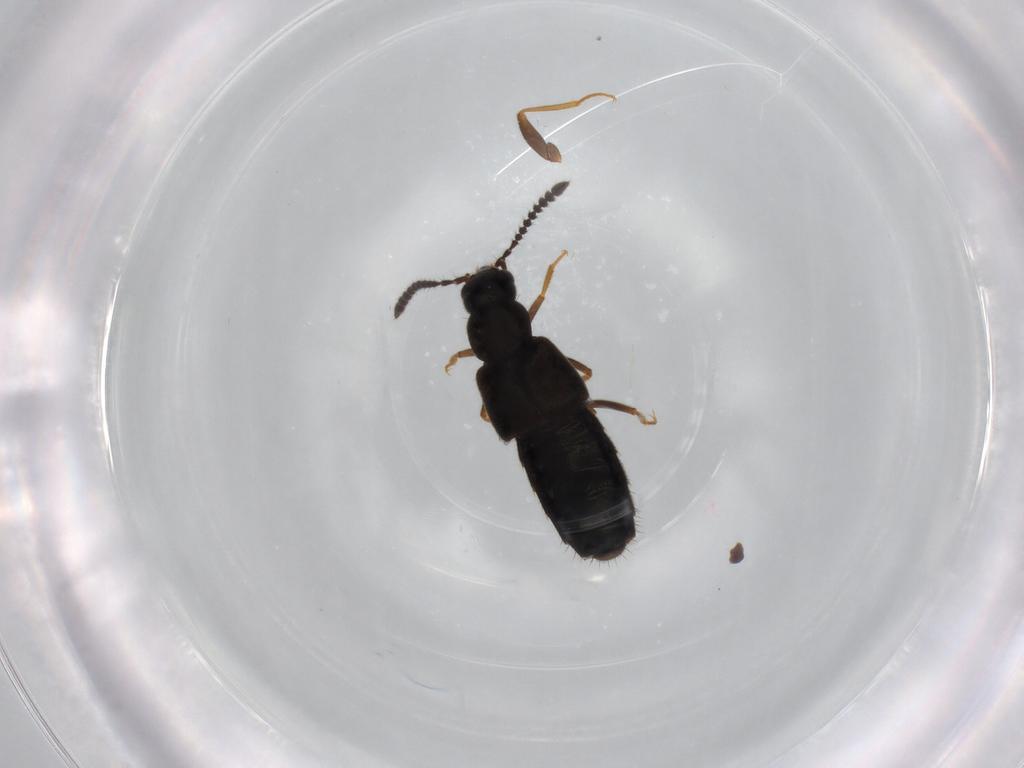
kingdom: Animalia
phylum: Arthropoda
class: Insecta
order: Coleoptera
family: Staphylinidae
